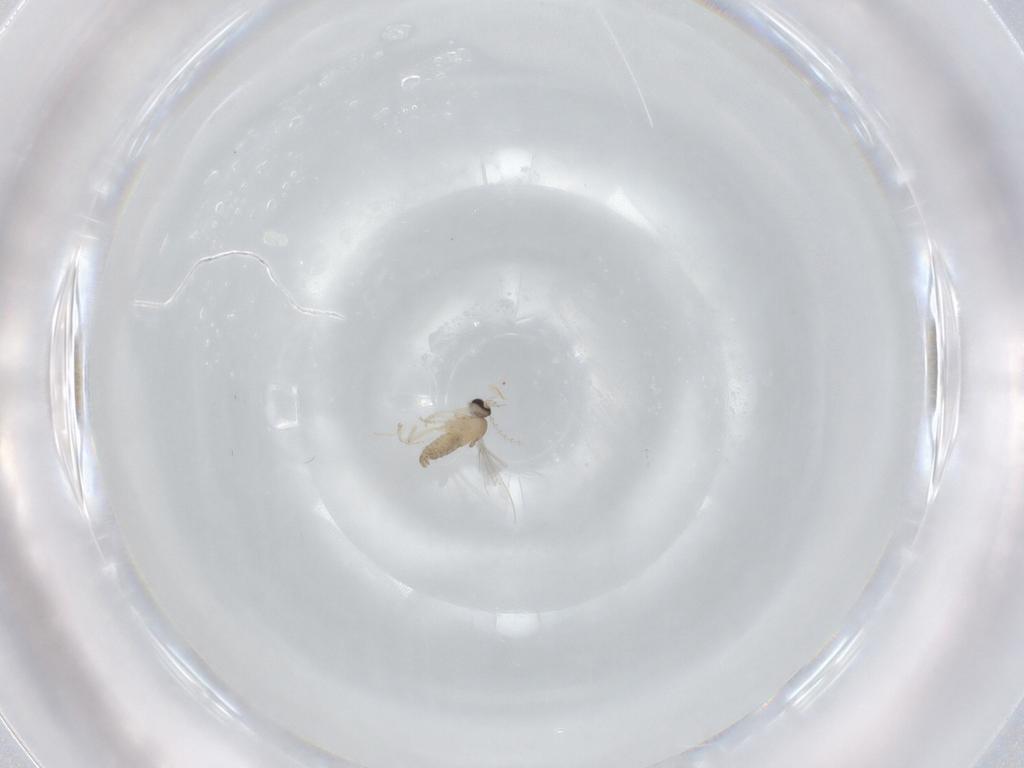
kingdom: Animalia
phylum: Arthropoda
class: Insecta
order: Diptera
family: Cecidomyiidae
